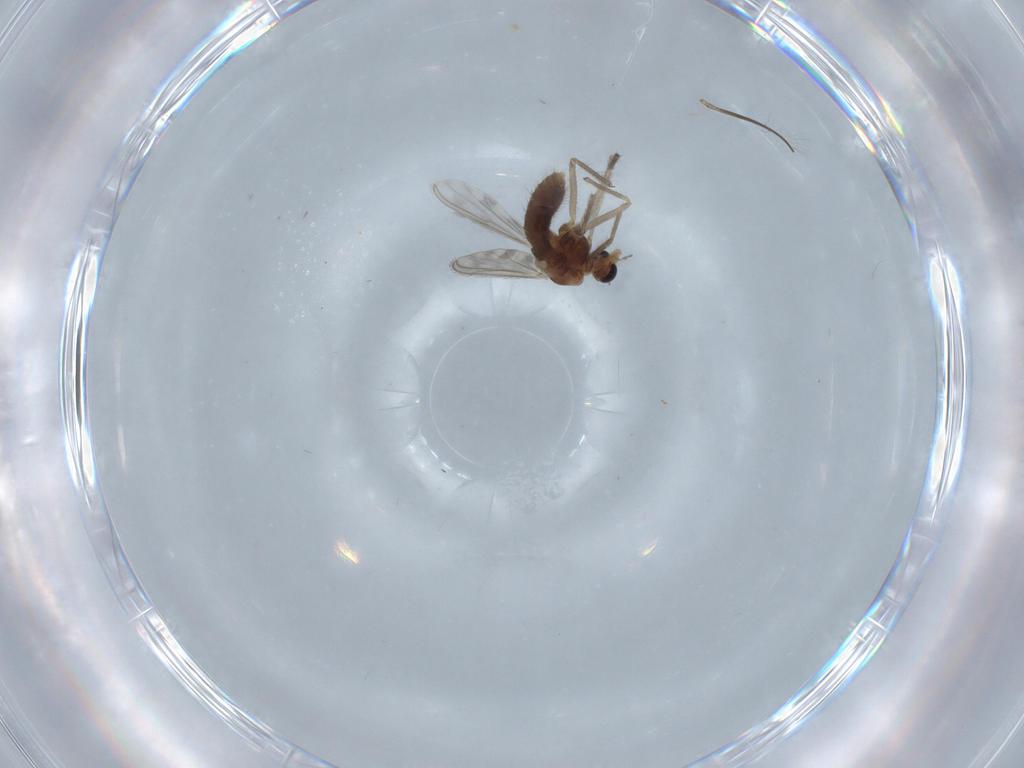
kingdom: Animalia
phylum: Arthropoda
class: Insecta
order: Diptera
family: Chironomidae
